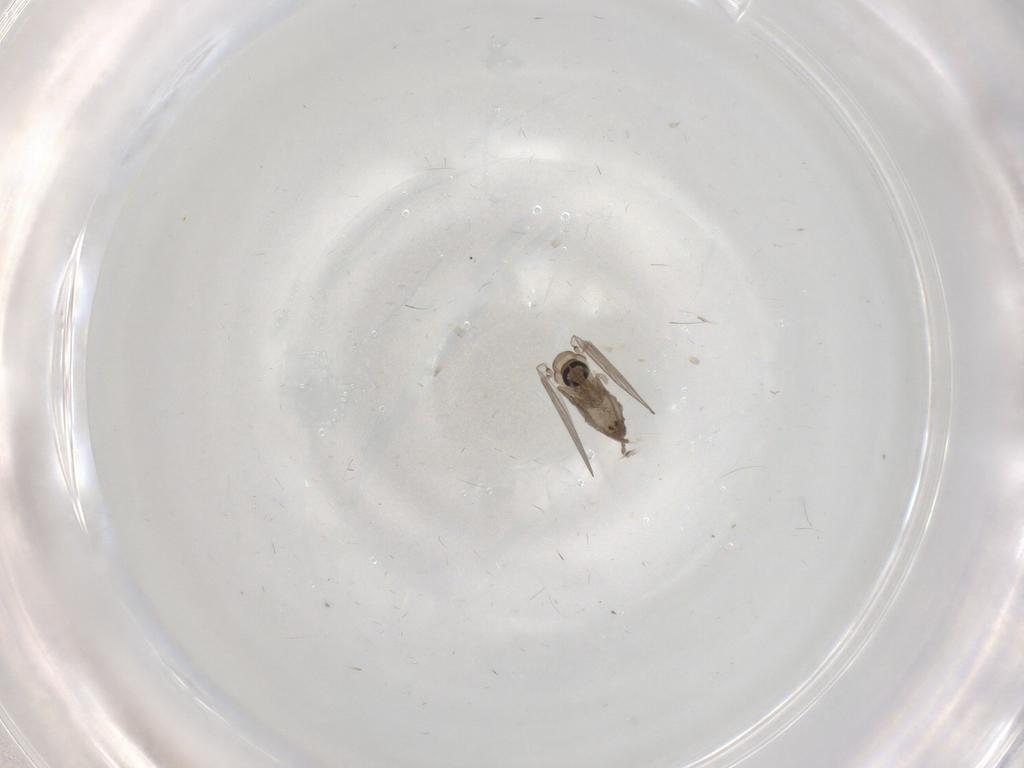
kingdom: Animalia
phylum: Arthropoda
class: Insecta
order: Diptera
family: Psychodidae
